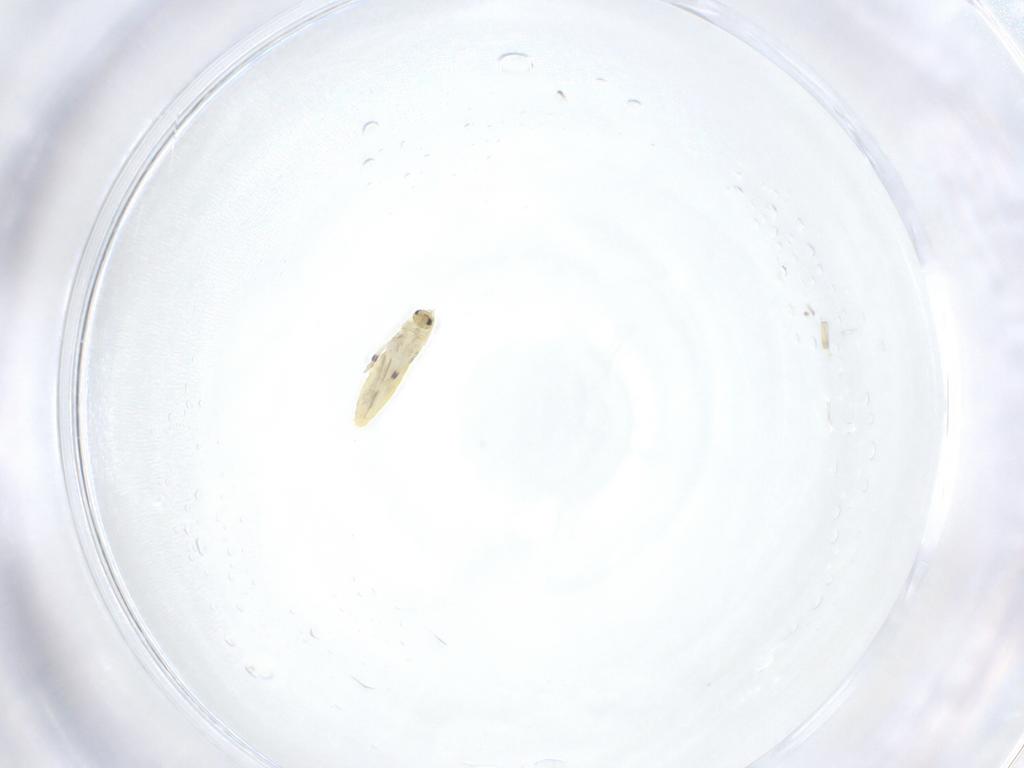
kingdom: Animalia
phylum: Arthropoda
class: Collembola
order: Entomobryomorpha
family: Entomobryidae
